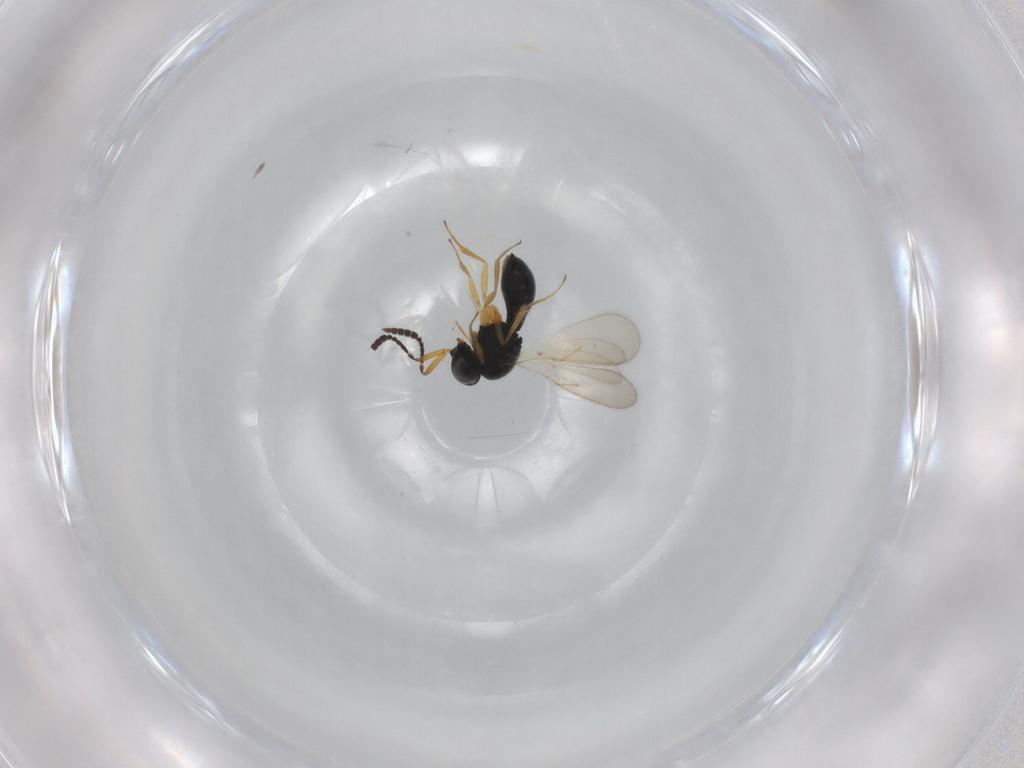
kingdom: Animalia
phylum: Arthropoda
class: Insecta
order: Hymenoptera
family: Scelionidae
